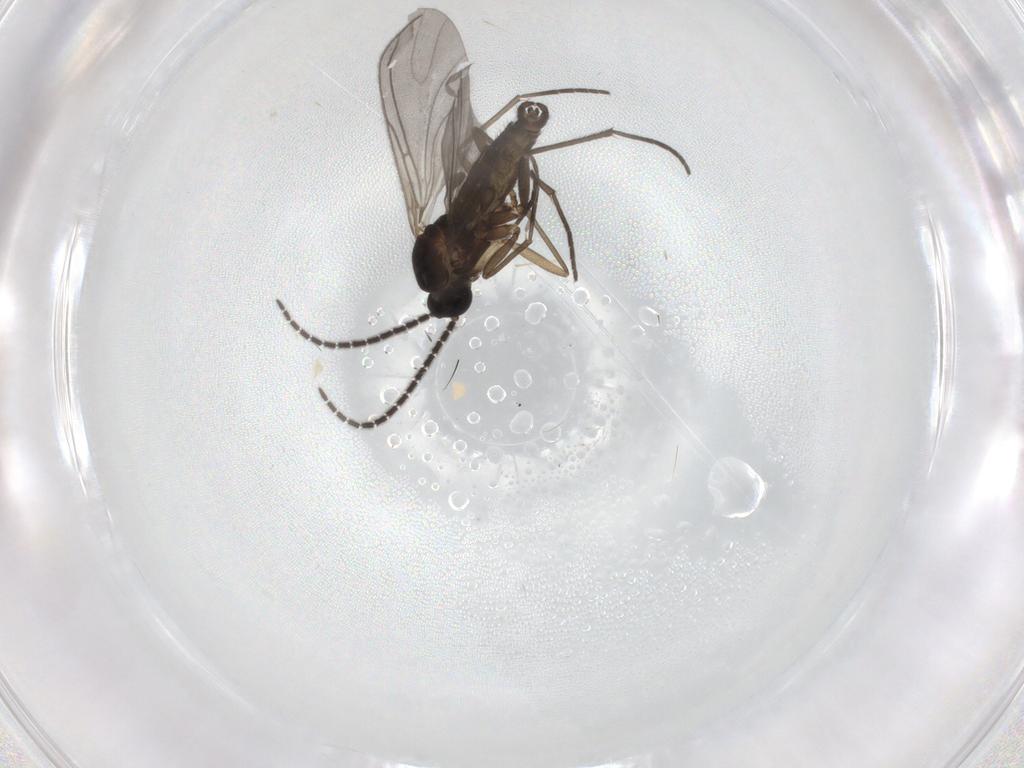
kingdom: Animalia
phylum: Arthropoda
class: Insecta
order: Diptera
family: Sciaridae
